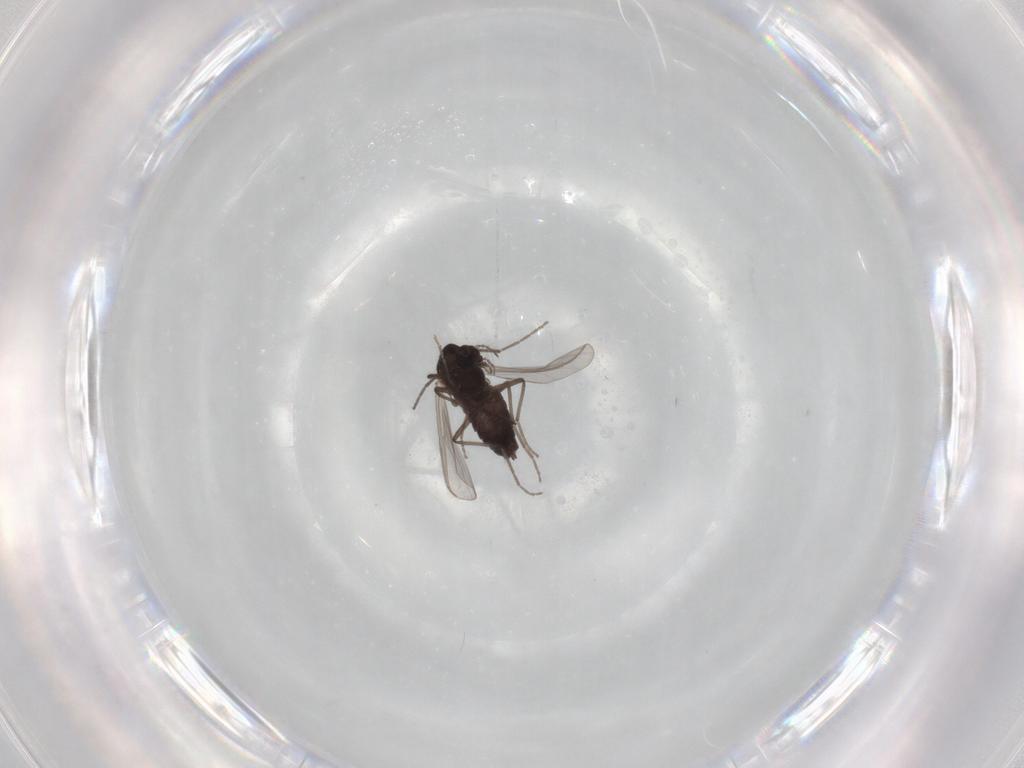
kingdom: Animalia
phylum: Arthropoda
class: Insecta
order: Diptera
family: Chironomidae
